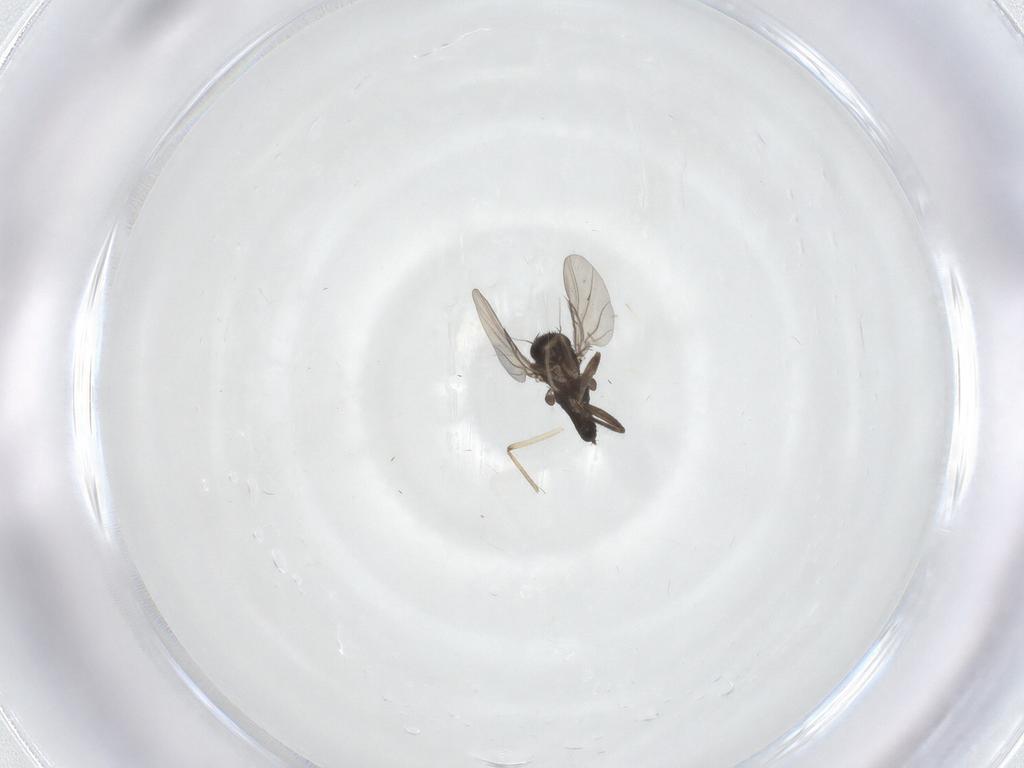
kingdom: Animalia
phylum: Arthropoda
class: Insecta
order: Diptera
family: Phoridae
